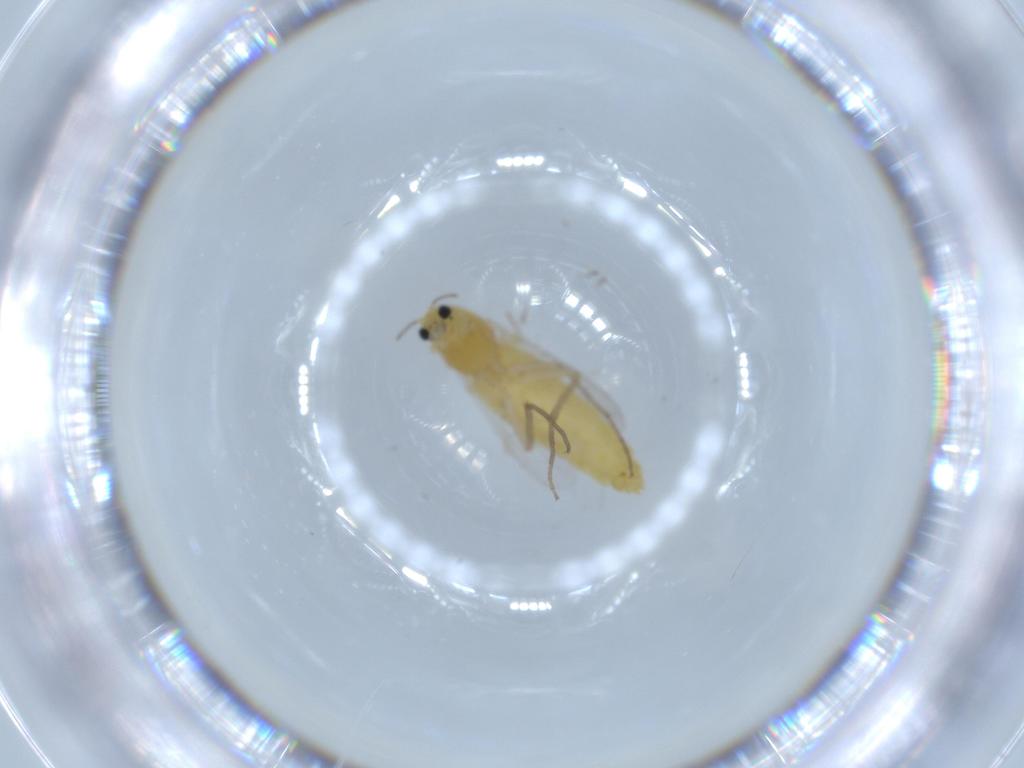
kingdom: Animalia
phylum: Arthropoda
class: Insecta
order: Diptera
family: Chironomidae
